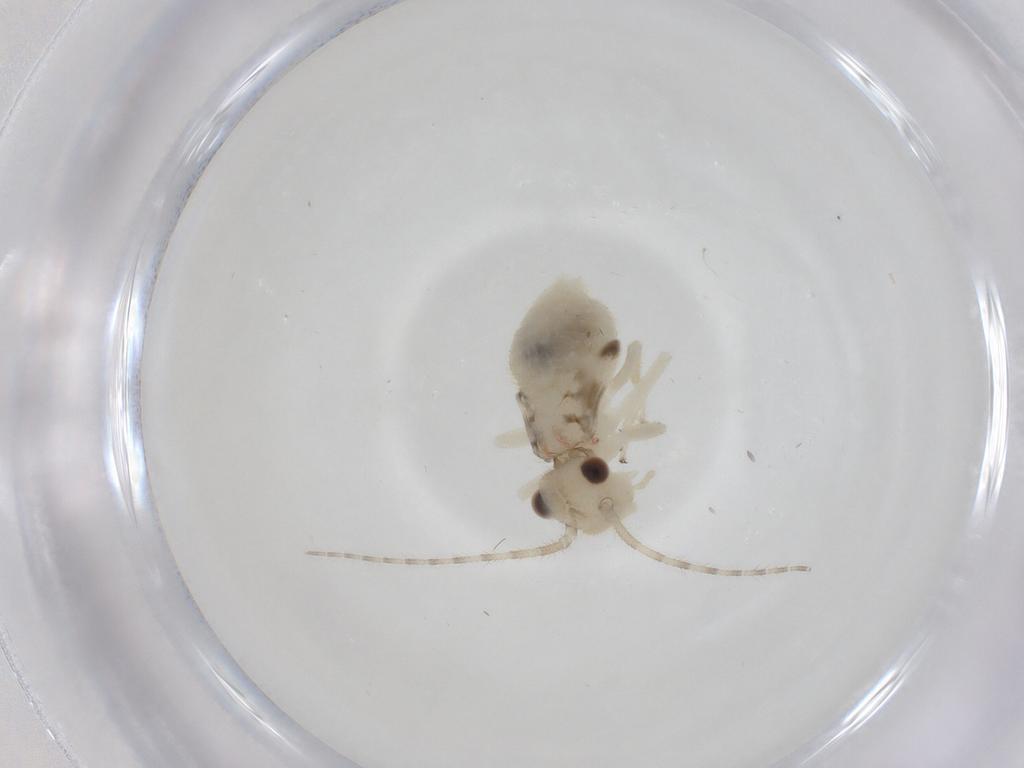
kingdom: Animalia
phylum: Arthropoda
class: Insecta
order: Psocodea
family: Amphipsocidae
